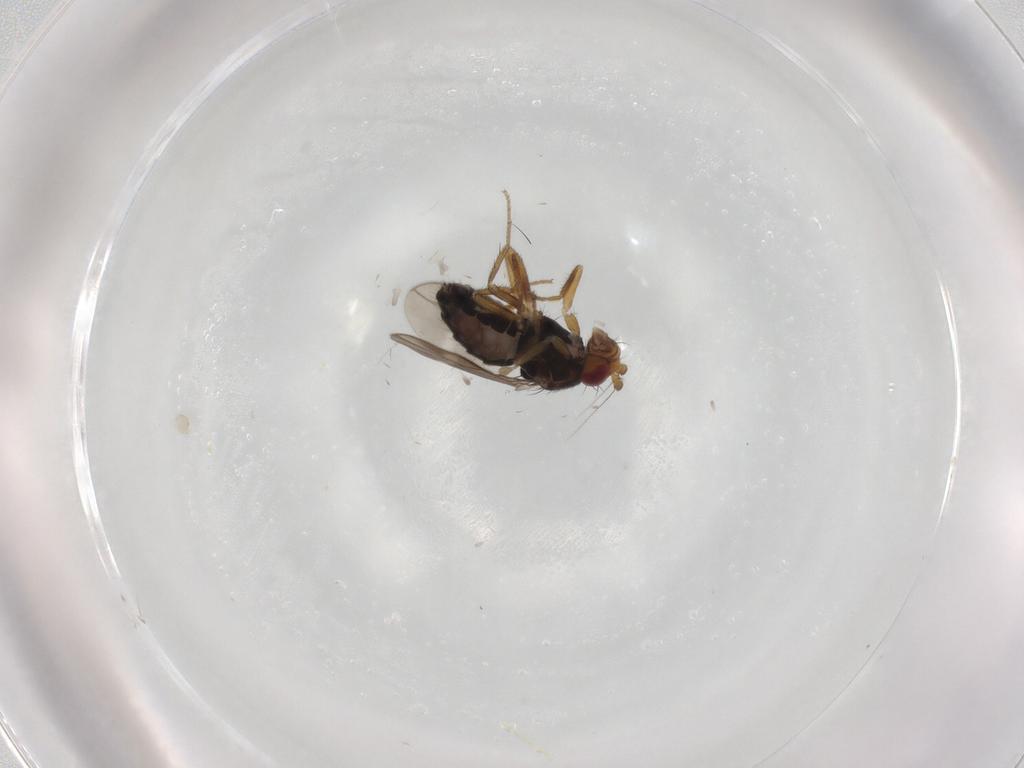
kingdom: Animalia
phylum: Arthropoda
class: Insecta
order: Diptera
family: Sphaeroceridae
